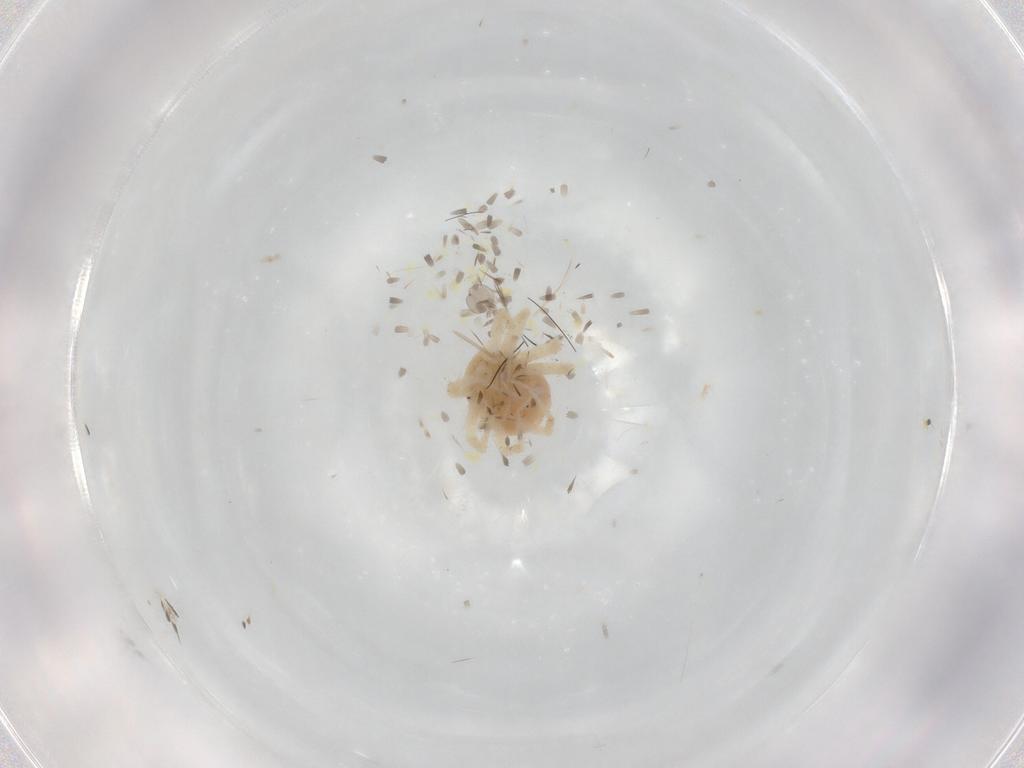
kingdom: Animalia
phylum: Arthropoda
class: Arachnida
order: Trombidiformes
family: Anystidae
